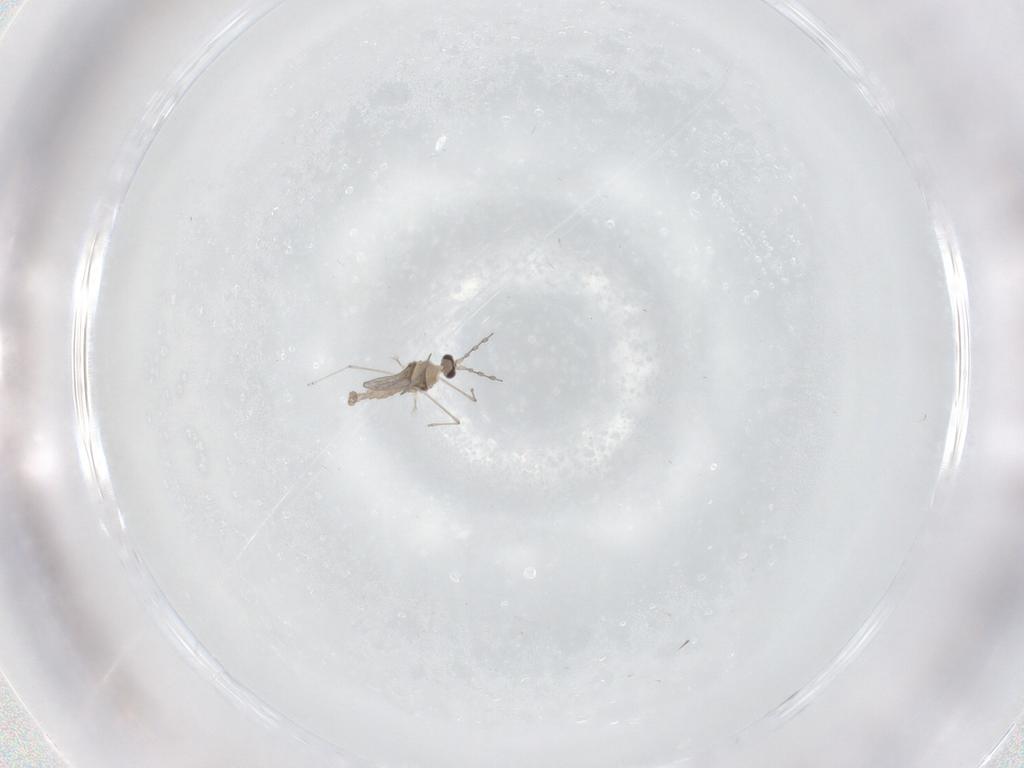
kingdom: Animalia
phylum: Arthropoda
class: Insecta
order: Diptera
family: Cecidomyiidae
